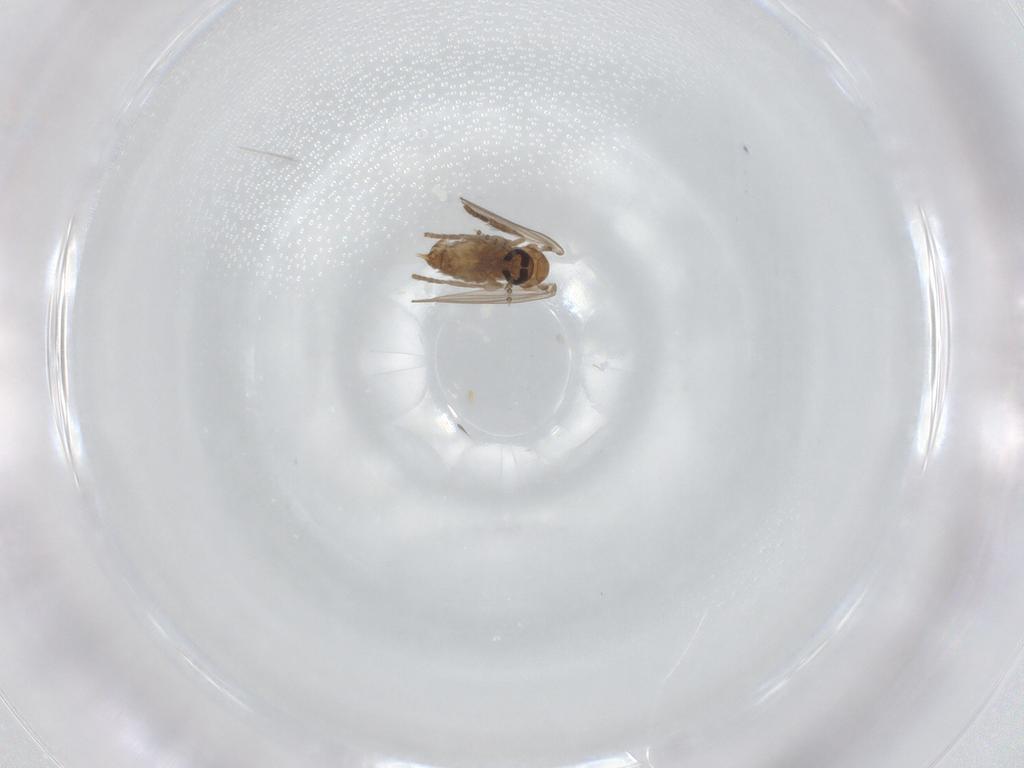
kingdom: Animalia
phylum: Arthropoda
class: Insecta
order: Diptera
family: Psychodidae
